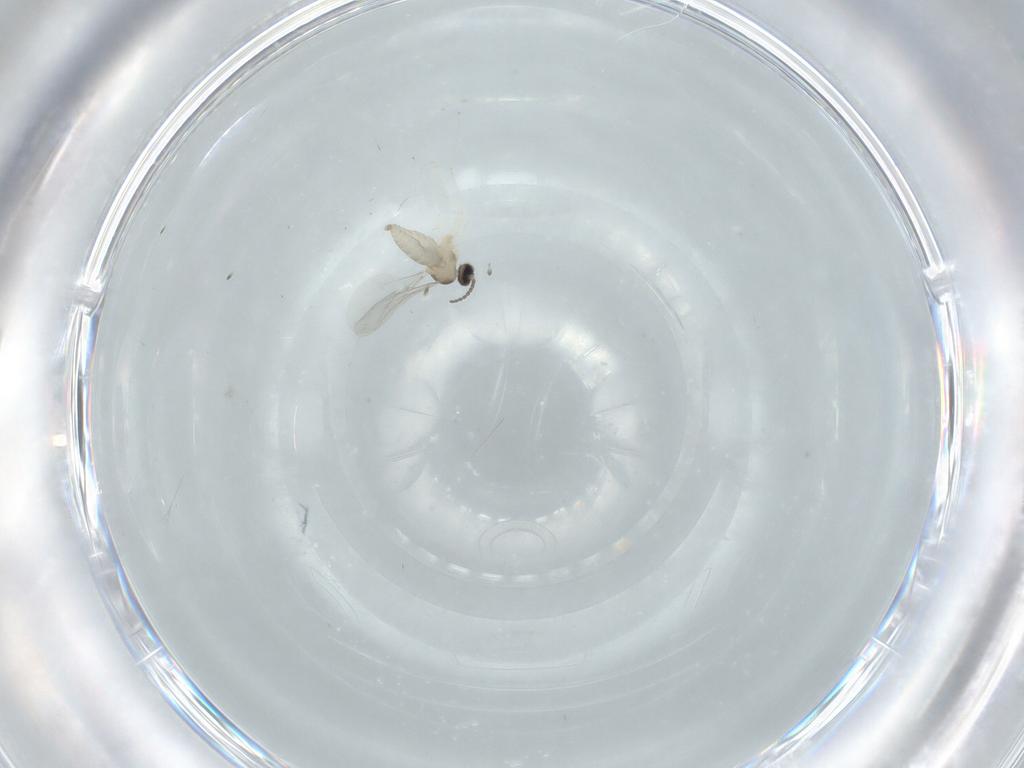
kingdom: Animalia
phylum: Arthropoda
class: Insecta
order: Diptera
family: Cecidomyiidae
